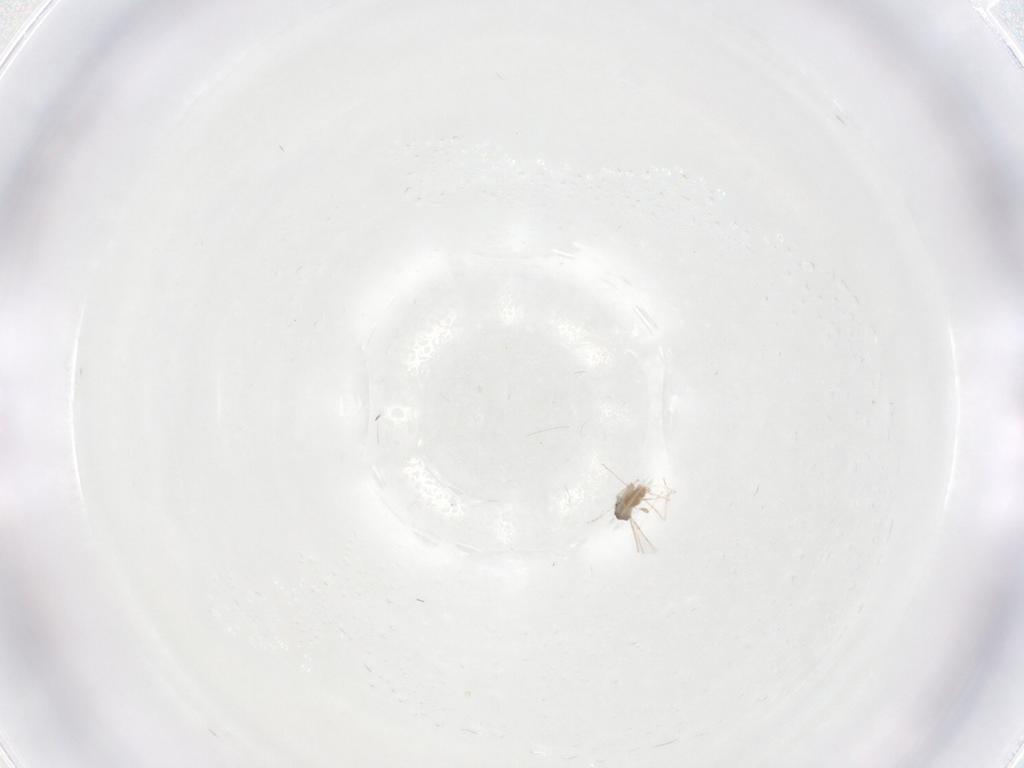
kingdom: Animalia
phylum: Arthropoda
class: Insecta
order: Diptera
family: Cecidomyiidae
